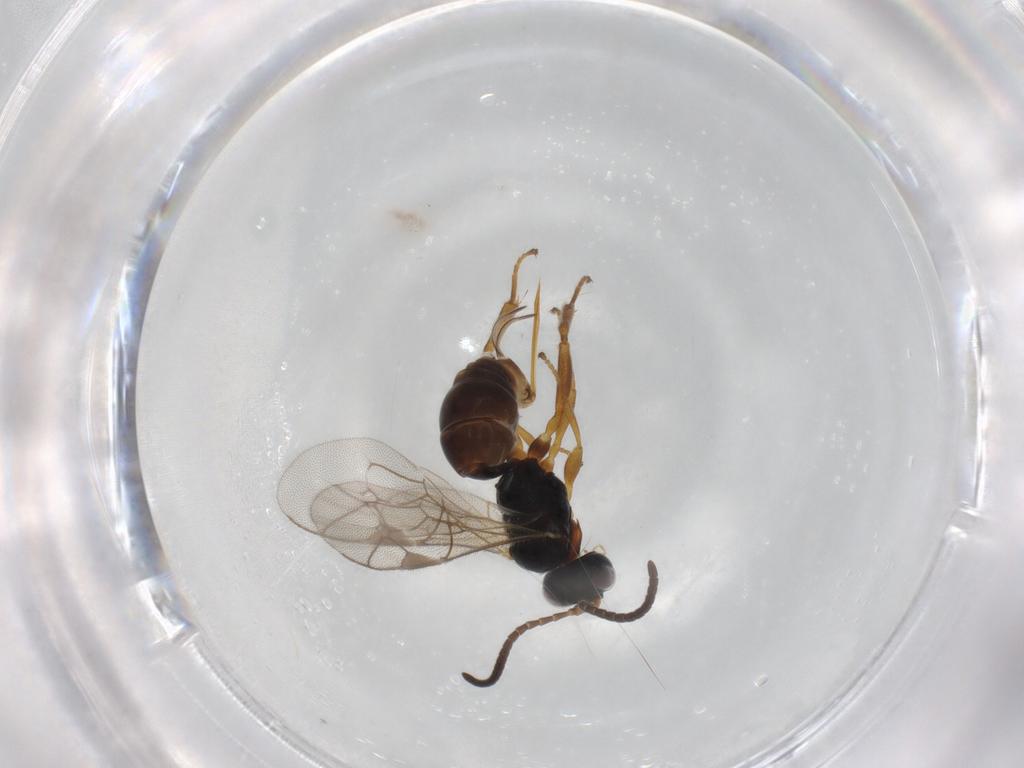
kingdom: Animalia
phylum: Arthropoda
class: Insecta
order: Hymenoptera
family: Ichneumonidae
